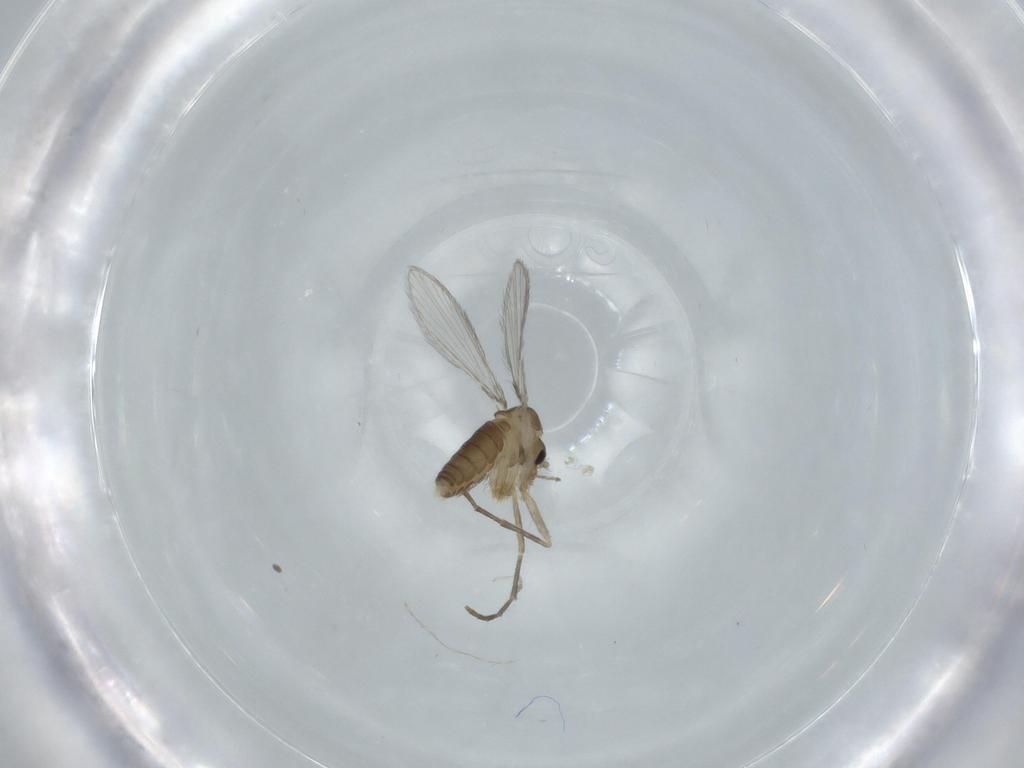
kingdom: Animalia
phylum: Arthropoda
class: Insecta
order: Diptera
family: Psychodidae
